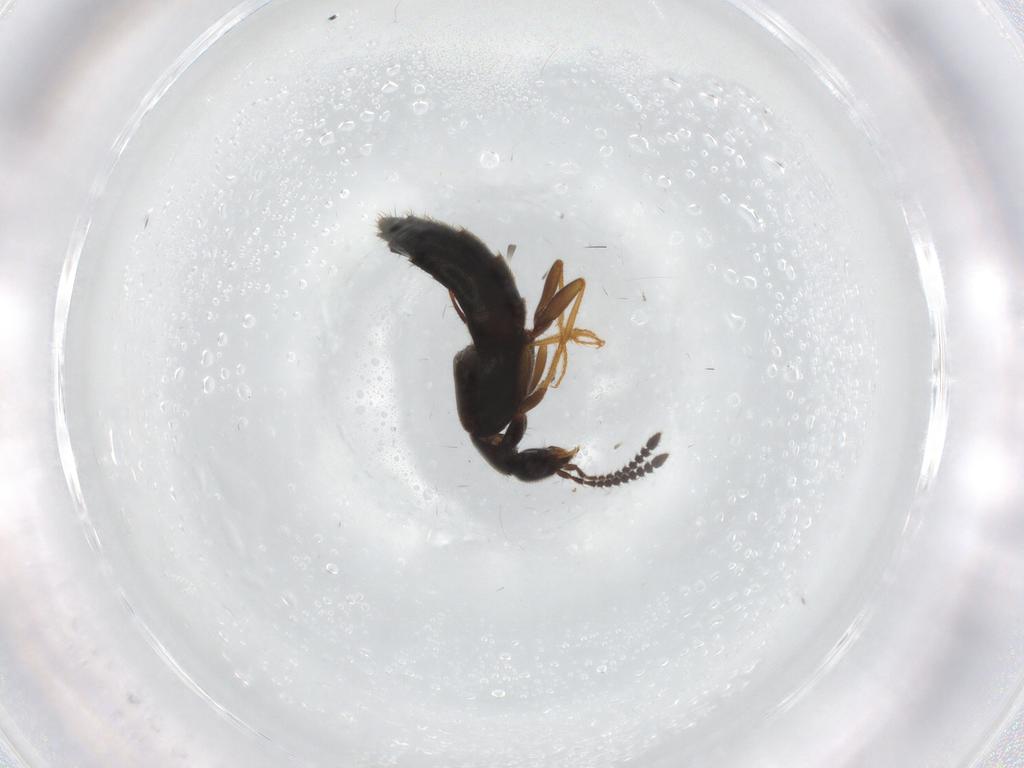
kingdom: Animalia
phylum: Arthropoda
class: Insecta
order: Coleoptera
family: Staphylinidae
